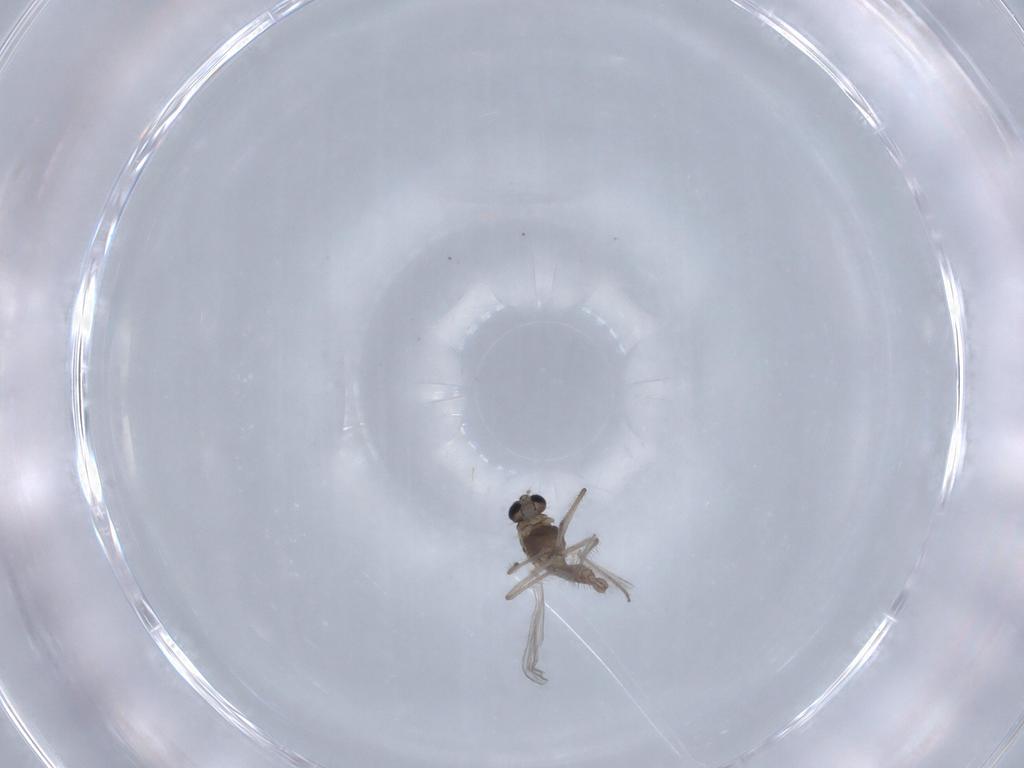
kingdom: Animalia
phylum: Arthropoda
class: Insecta
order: Diptera
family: Chironomidae
